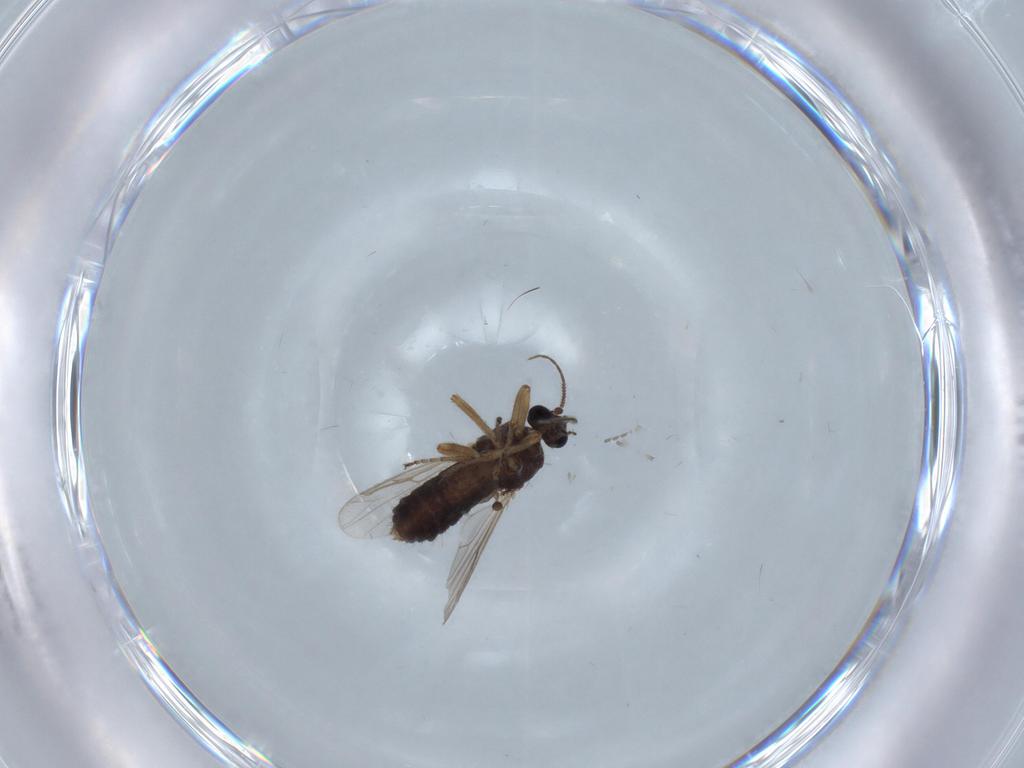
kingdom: Animalia
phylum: Arthropoda
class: Insecta
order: Diptera
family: Ceratopogonidae
